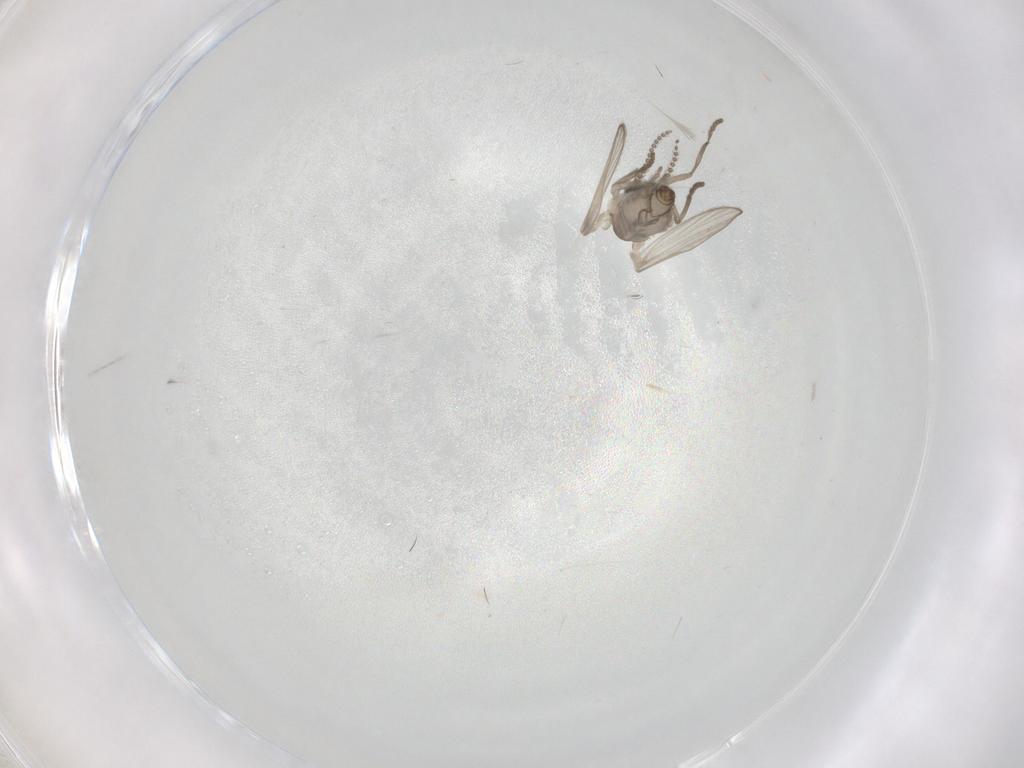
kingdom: Animalia
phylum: Arthropoda
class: Insecta
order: Diptera
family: Psychodidae
